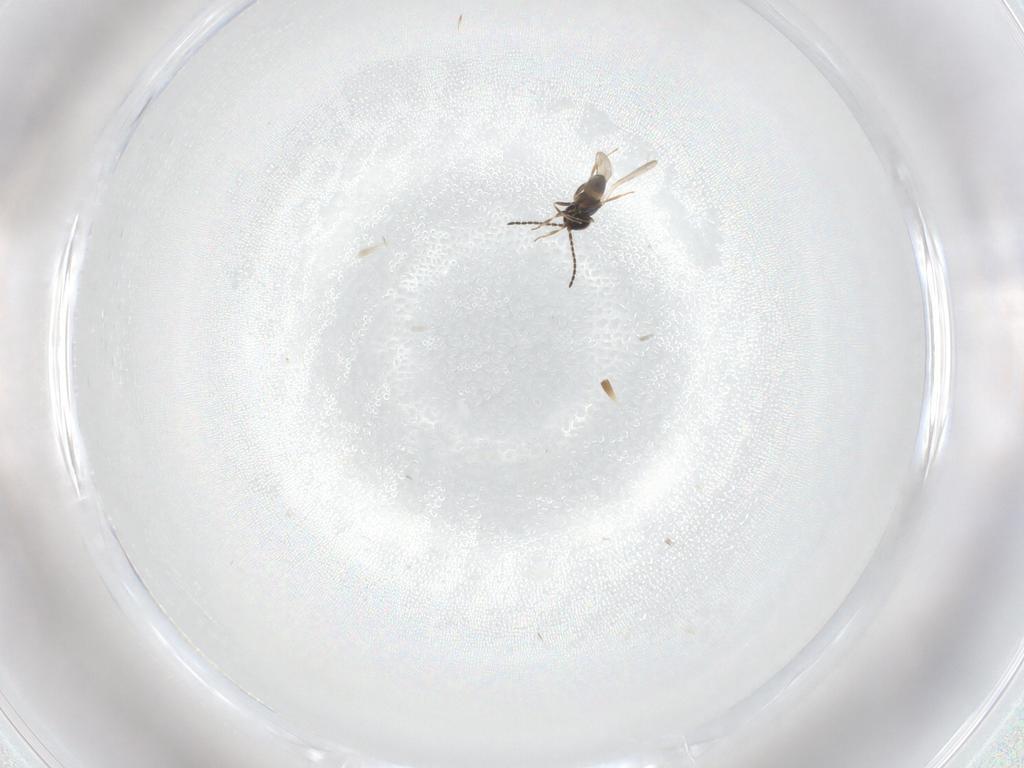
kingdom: Animalia
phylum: Arthropoda
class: Insecta
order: Hymenoptera
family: Ceraphronidae
